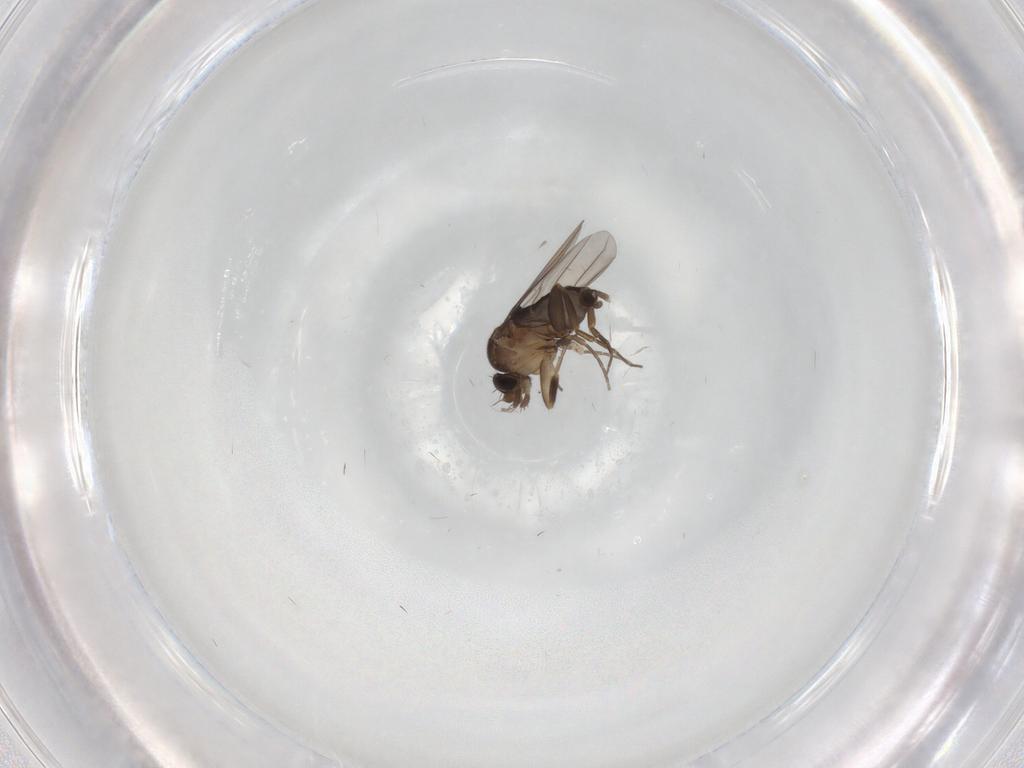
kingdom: Animalia
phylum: Arthropoda
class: Insecta
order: Diptera
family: Phoridae
